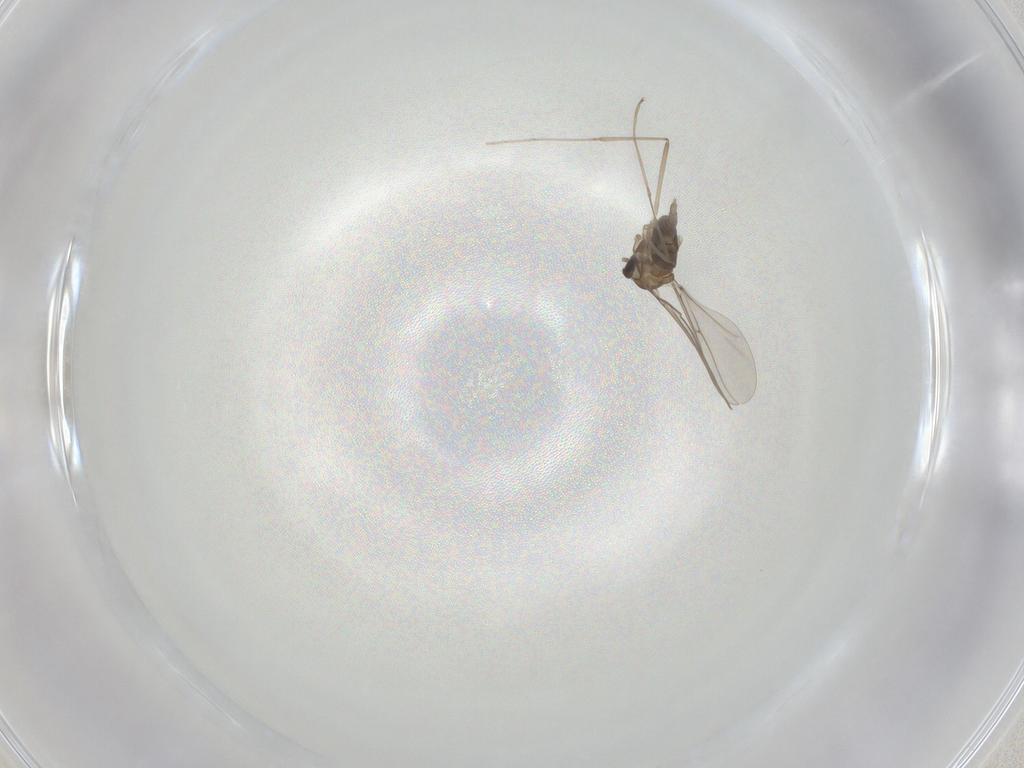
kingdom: Animalia
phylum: Arthropoda
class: Insecta
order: Diptera
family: Cecidomyiidae
